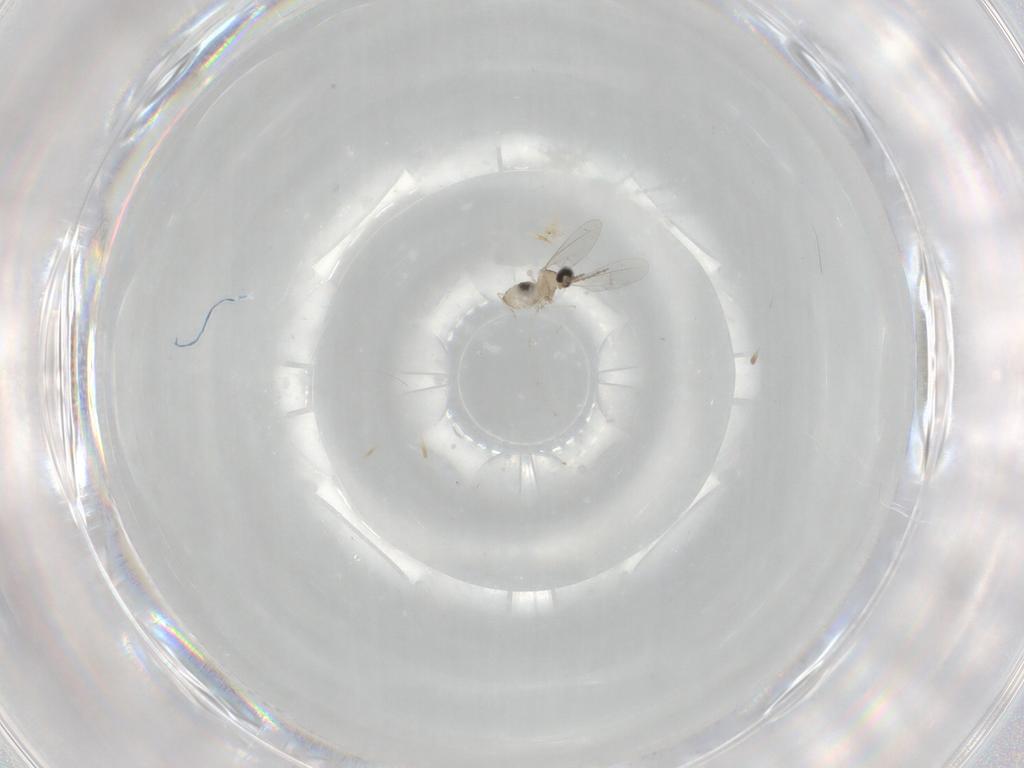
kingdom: Animalia
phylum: Arthropoda
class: Insecta
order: Diptera
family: Cecidomyiidae
